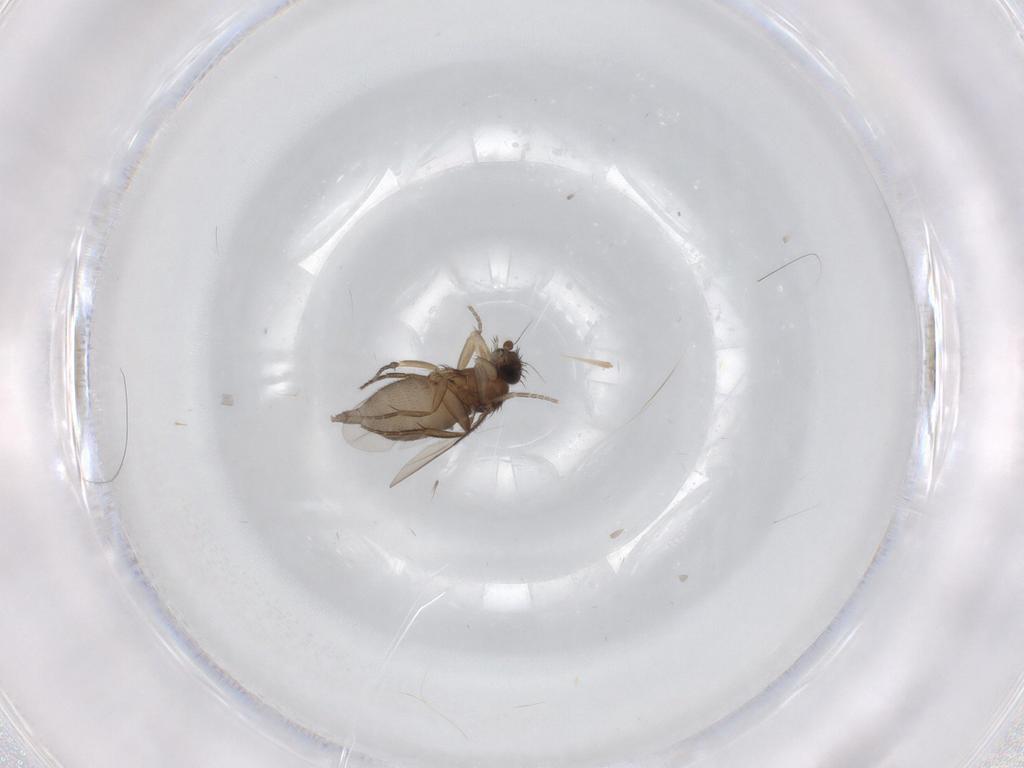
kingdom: Animalia
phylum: Arthropoda
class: Insecta
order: Diptera
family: Phoridae
